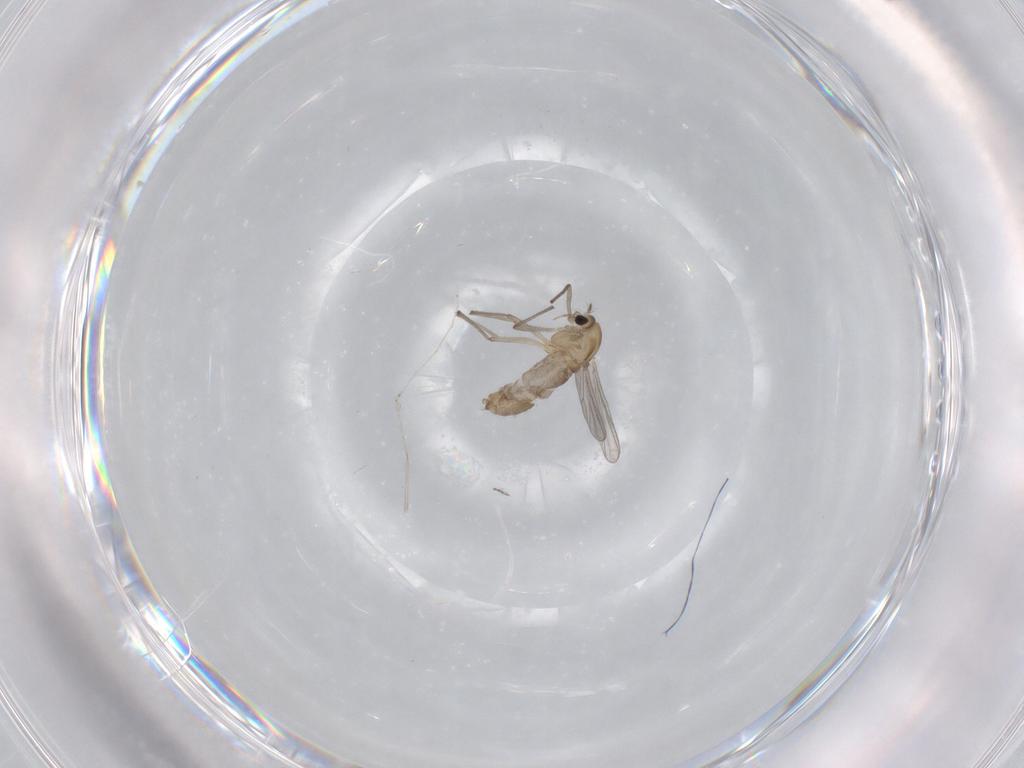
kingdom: Animalia
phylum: Arthropoda
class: Insecta
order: Diptera
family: Chironomidae
